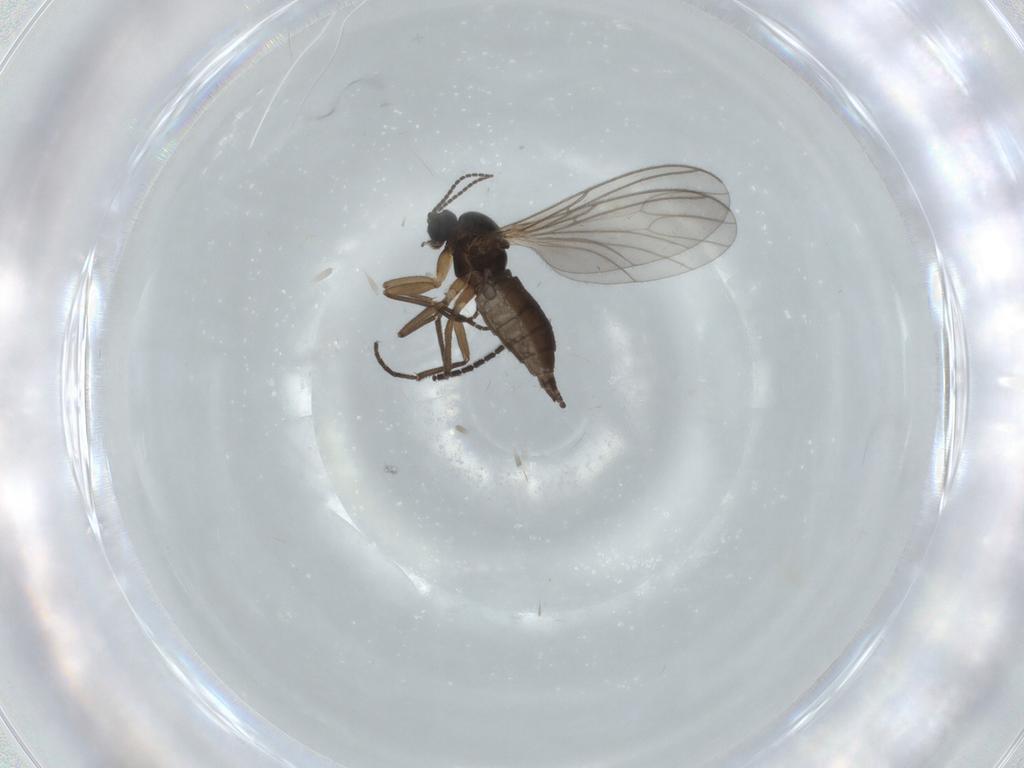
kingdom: Animalia
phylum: Arthropoda
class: Insecta
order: Diptera
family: Sciaridae
